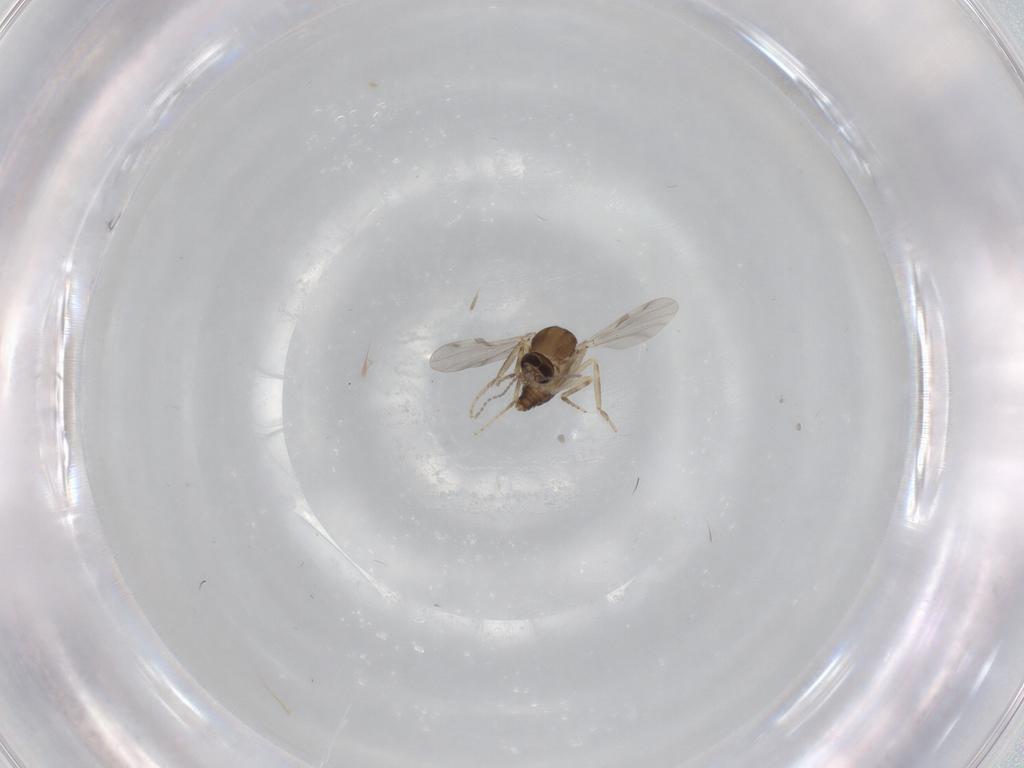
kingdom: Animalia
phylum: Arthropoda
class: Insecta
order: Diptera
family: Ceratopogonidae
